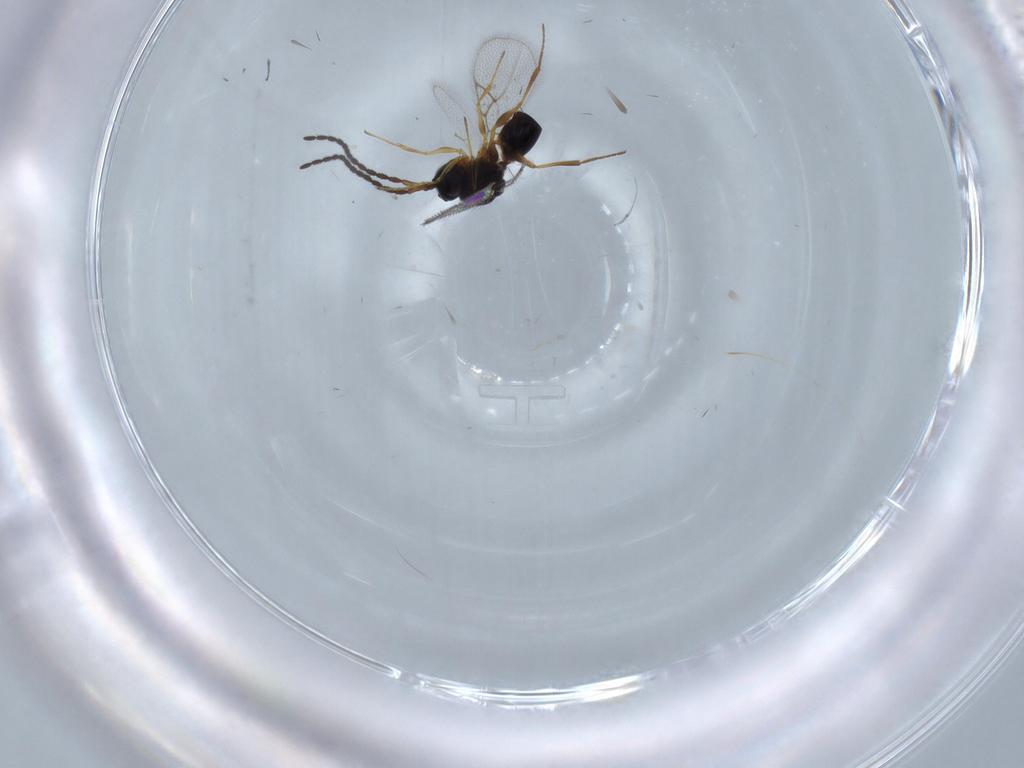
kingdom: Animalia
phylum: Arthropoda
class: Insecta
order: Hymenoptera
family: Figitidae
